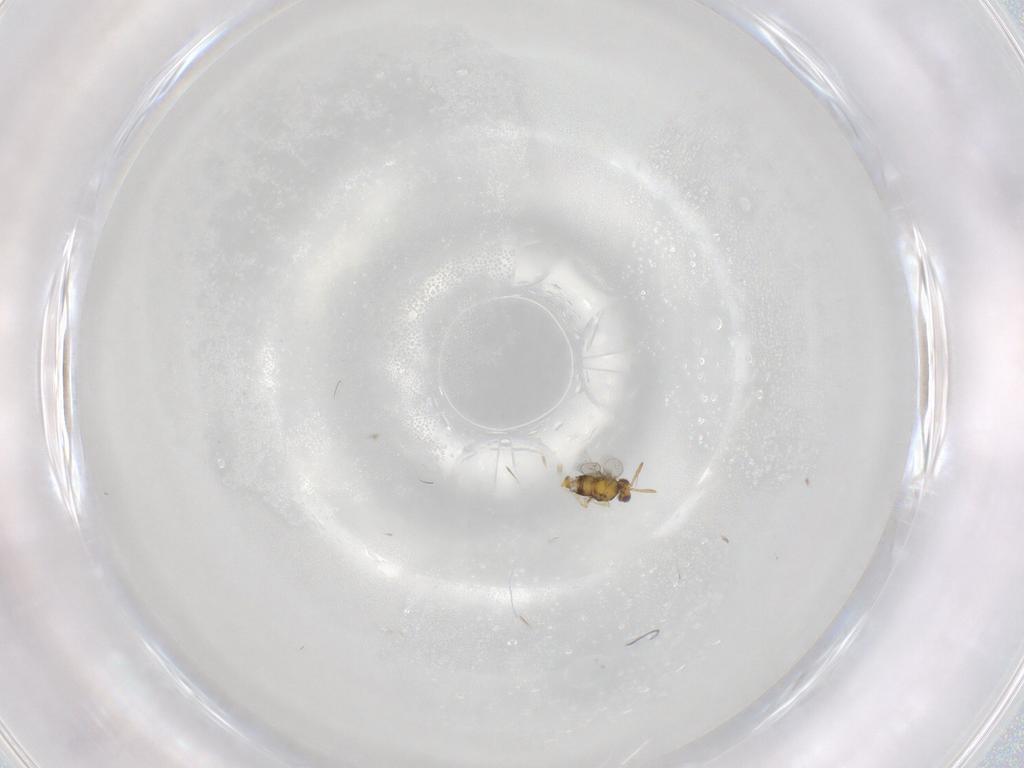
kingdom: Animalia
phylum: Arthropoda
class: Insecta
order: Hymenoptera
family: Aphelinidae
